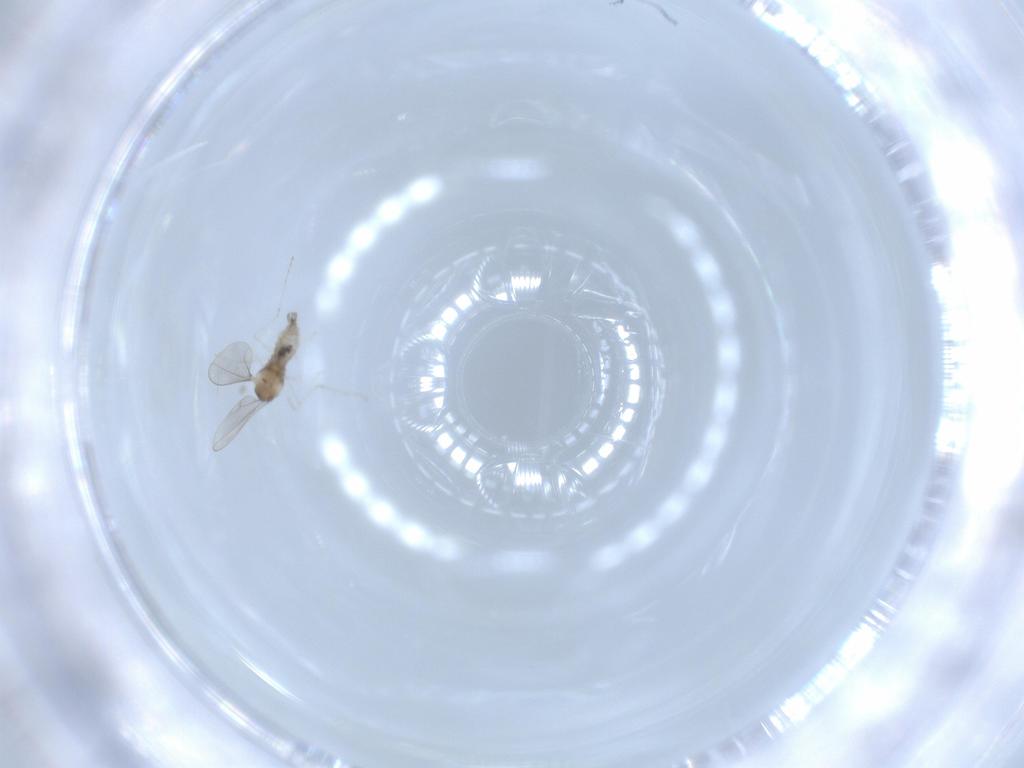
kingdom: Animalia
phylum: Arthropoda
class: Insecta
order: Diptera
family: Sciaridae
